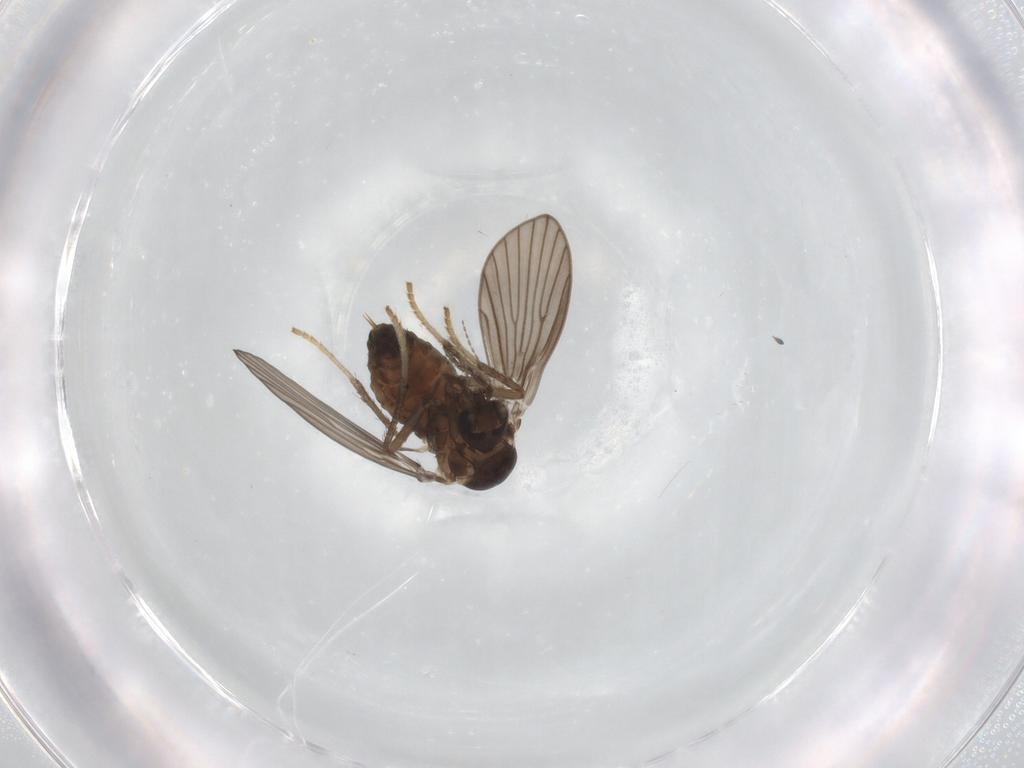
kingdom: Animalia
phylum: Arthropoda
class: Insecta
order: Diptera
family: Psychodidae
